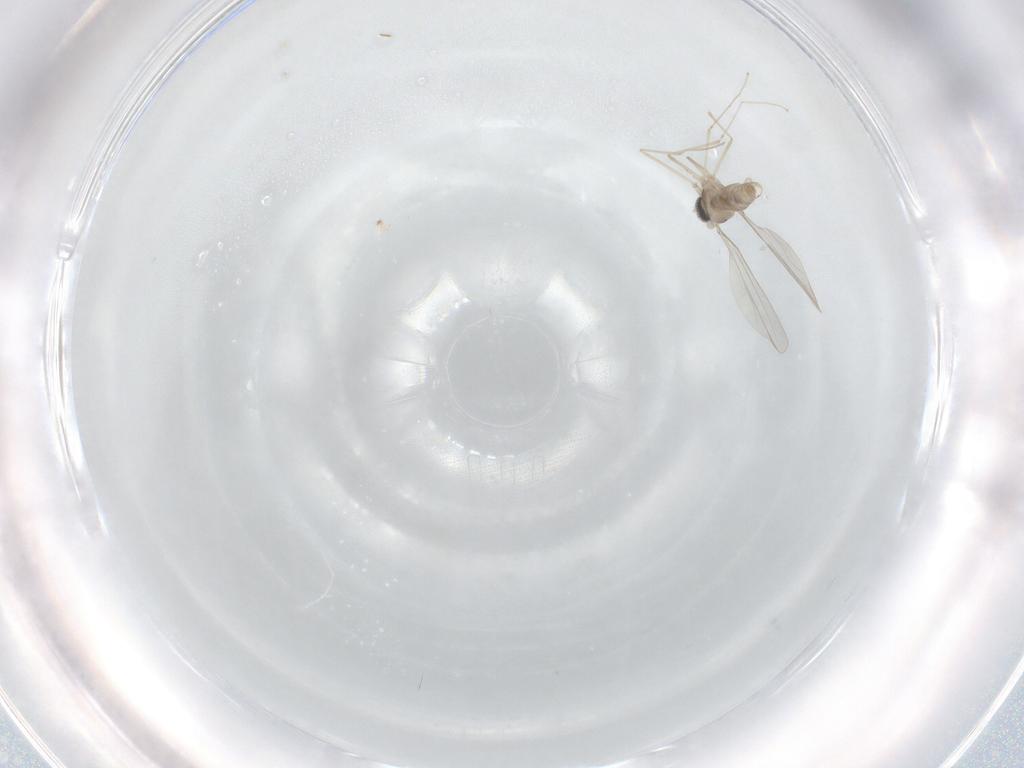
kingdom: Animalia
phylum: Arthropoda
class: Insecta
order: Diptera
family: Cecidomyiidae
